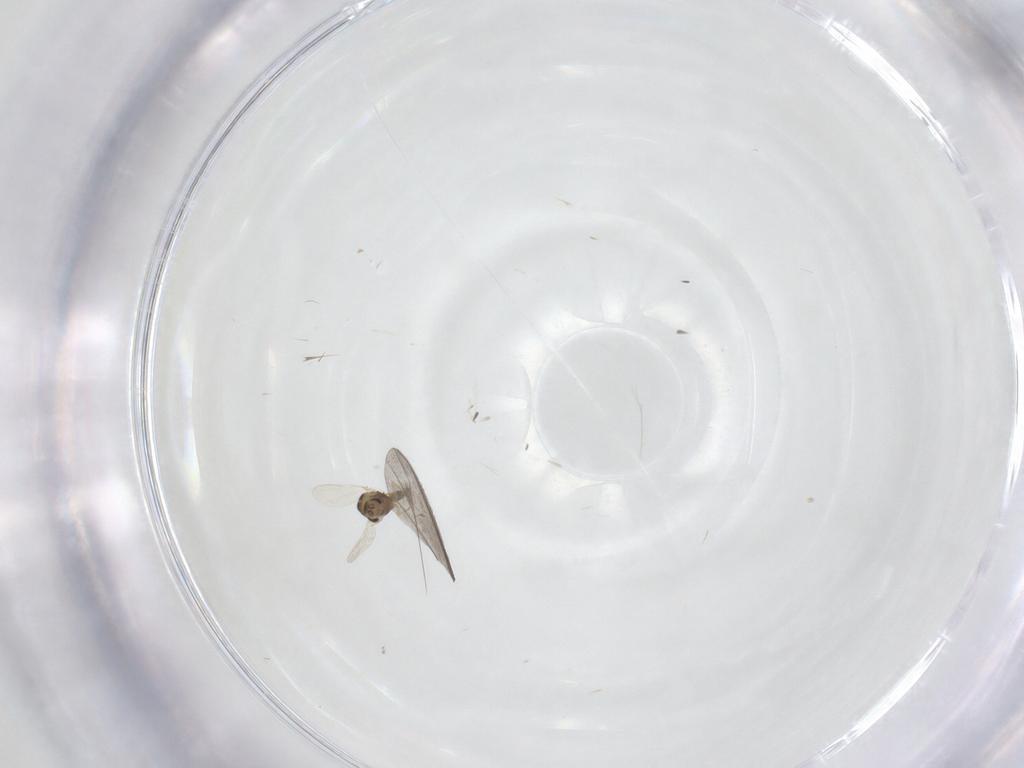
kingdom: Animalia
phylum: Arthropoda
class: Insecta
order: Diptera
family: Chironomidae
